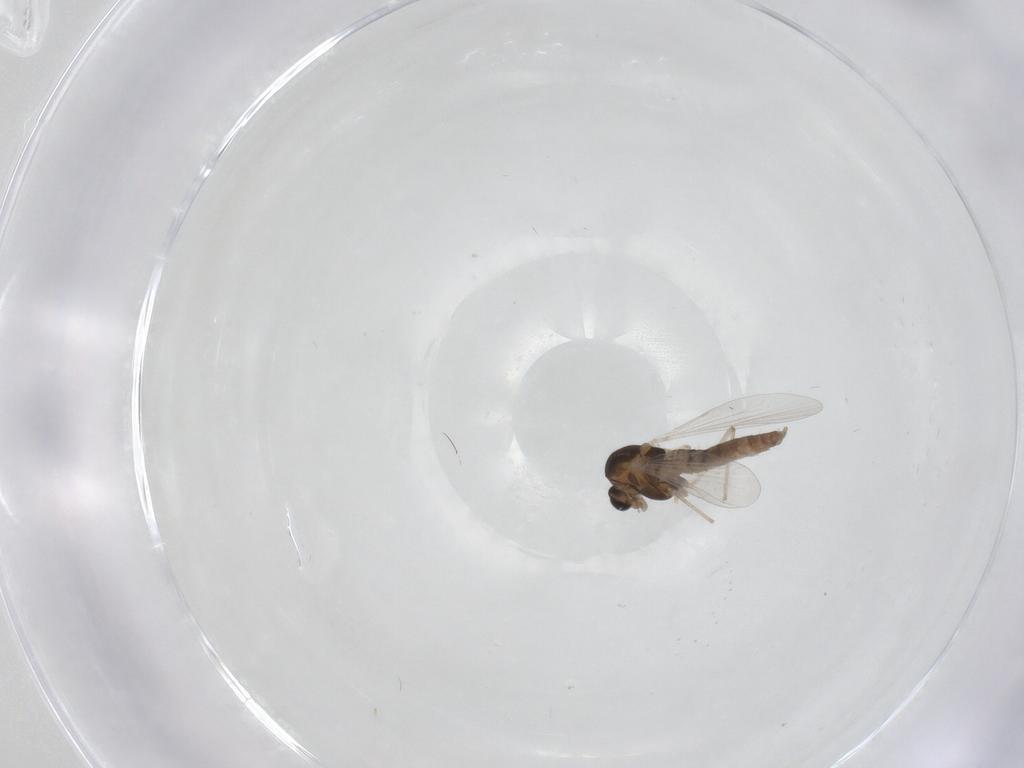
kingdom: Animalia
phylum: Arthropoda
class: Insecta
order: Diptera
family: Chironomidae
